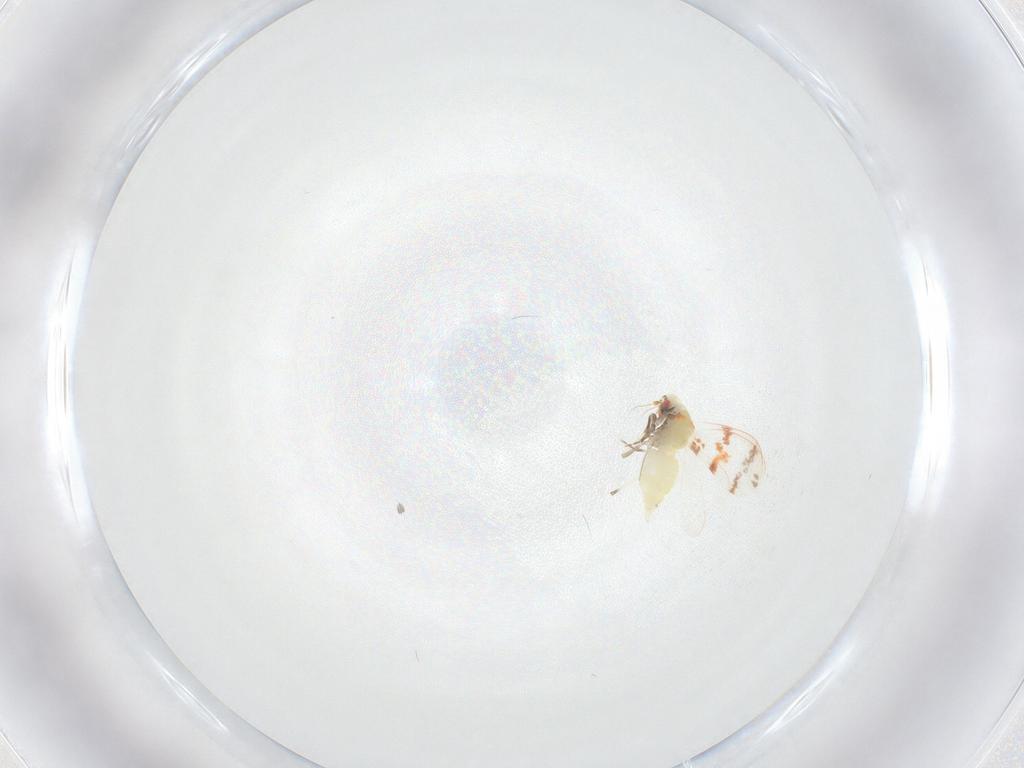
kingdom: Animalia
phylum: Arthropoda
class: Insecta
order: Hemiptera
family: Aleyrodidae
